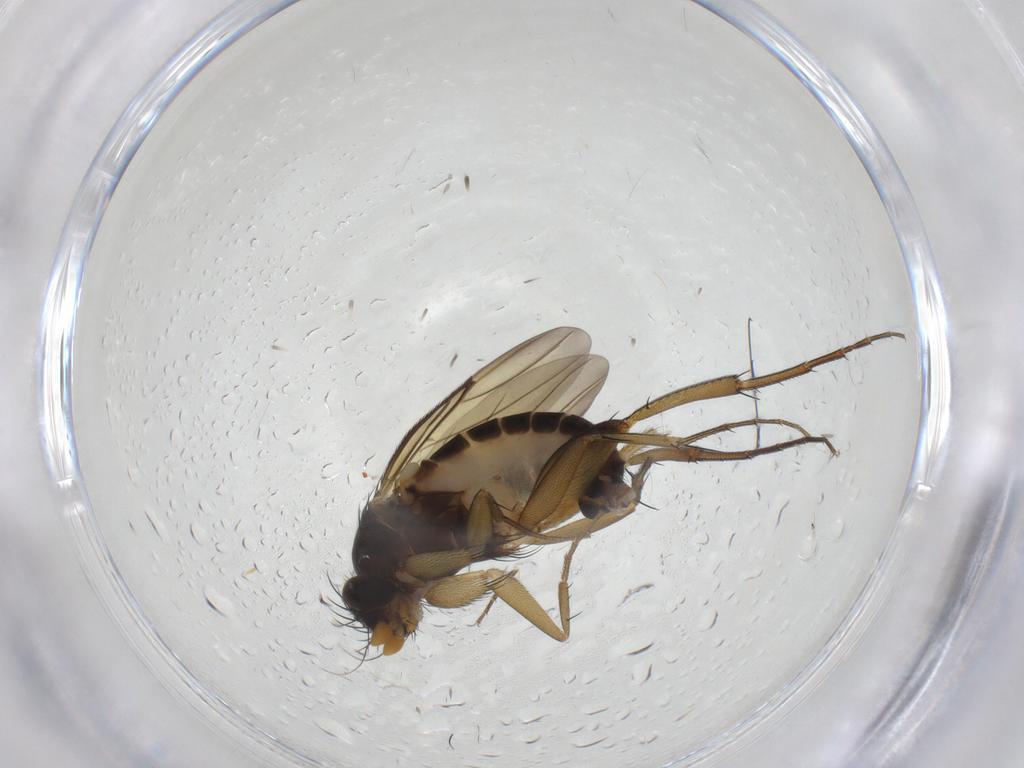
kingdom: Animalia
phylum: Arthropoda
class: Insecta
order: Diptera
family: Phoridae
